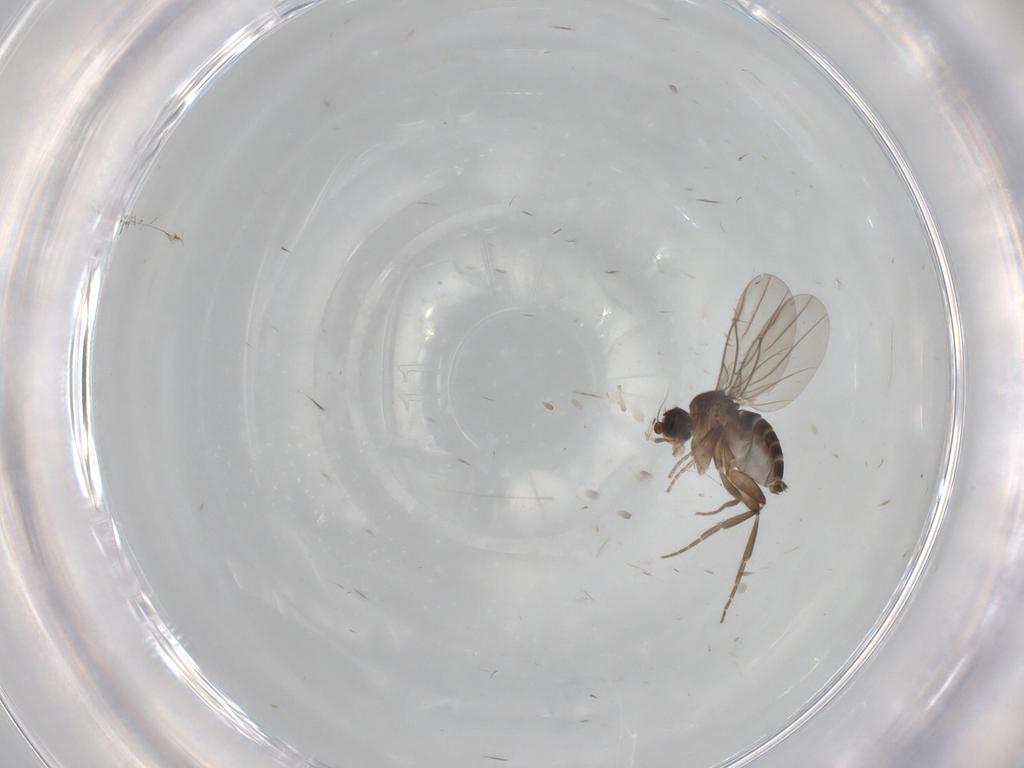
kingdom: Animalia
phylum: Arthropoda
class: Insecta
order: Diptera
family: Phoridae
